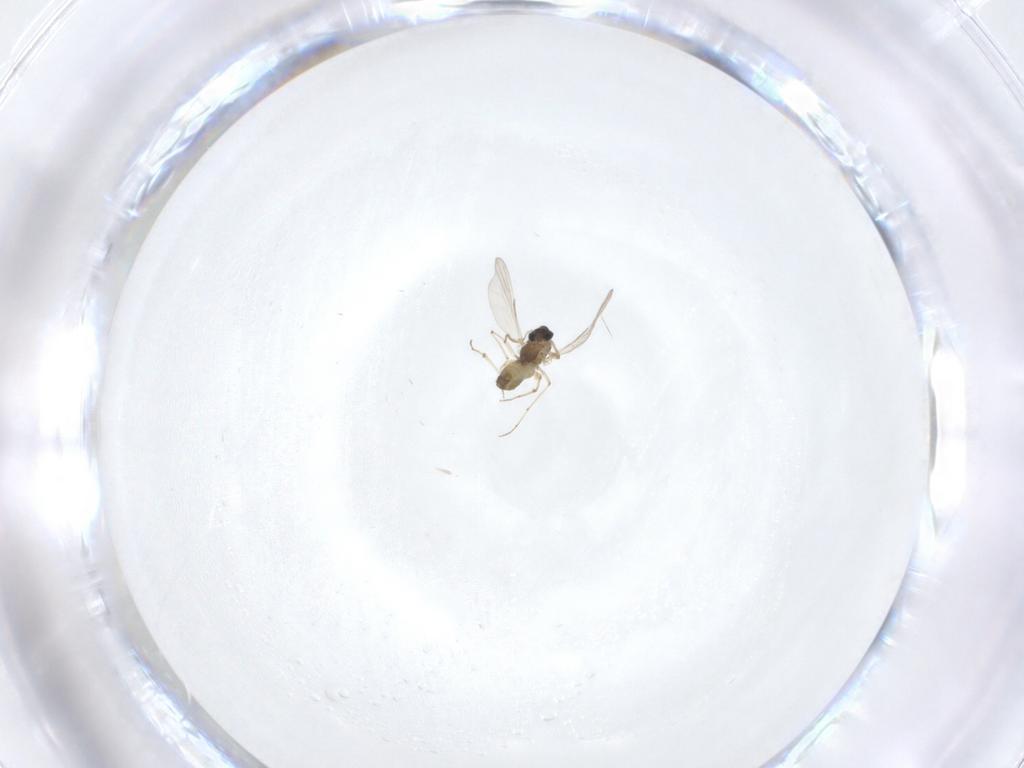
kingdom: Animalia
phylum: Arthropoda
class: Insecta
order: Diptera
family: Chironomidae
